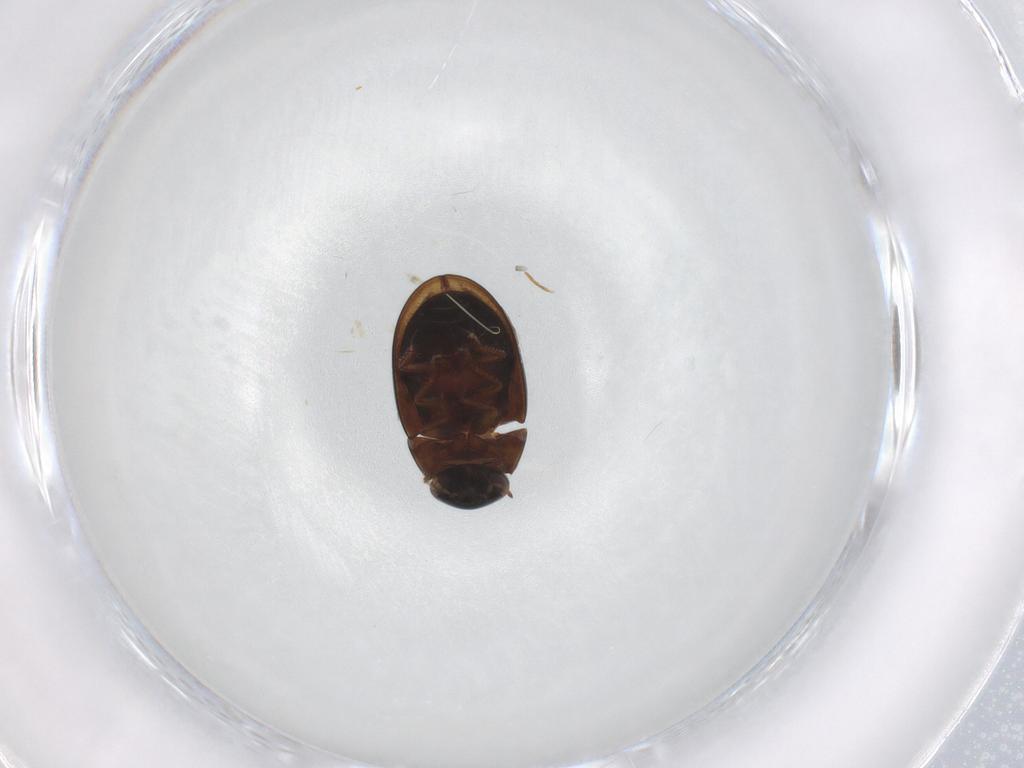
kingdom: Animalia
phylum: Arthropoda
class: Insecta
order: Coleoptera
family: Hydrophilidae
